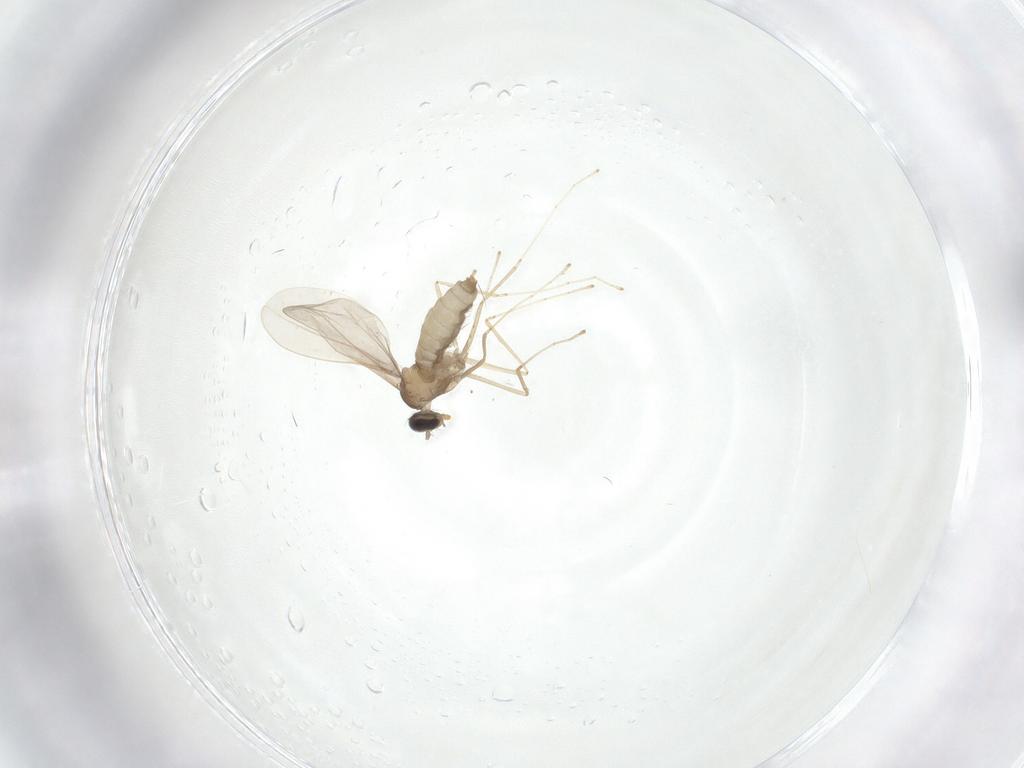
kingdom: Animalia
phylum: Arthropoda
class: Insecta
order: Diptera
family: Cecidomyiidae
